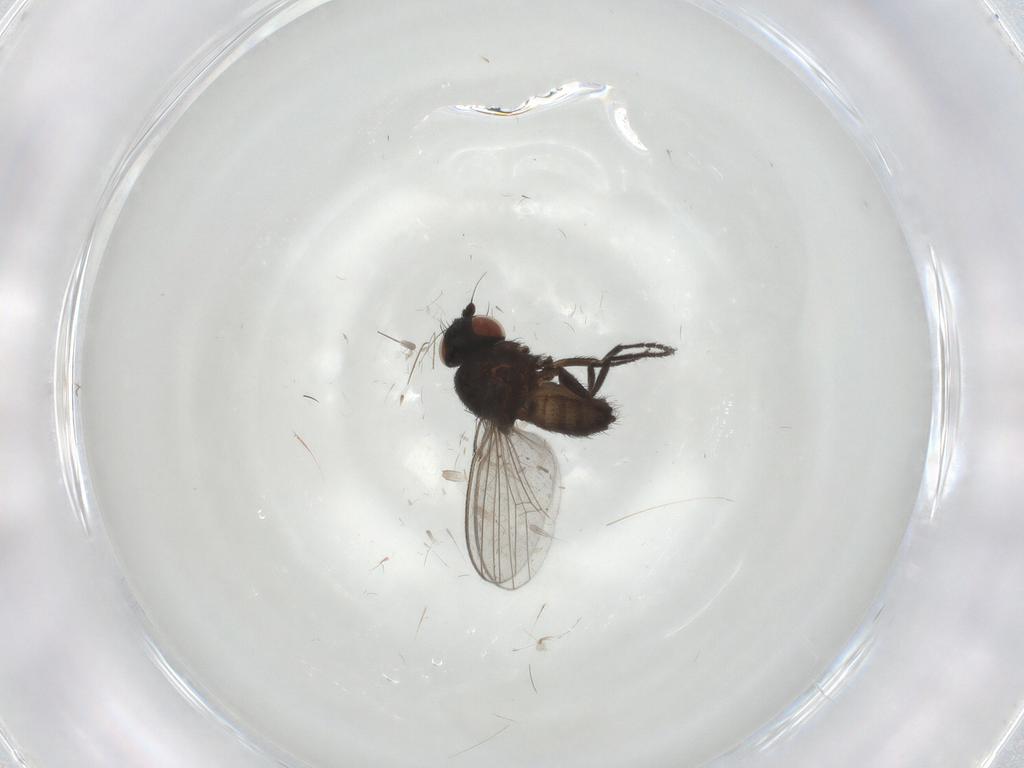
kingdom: Animalia
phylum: Arthropoda
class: Insecta
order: Diptera
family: Milichiidae
